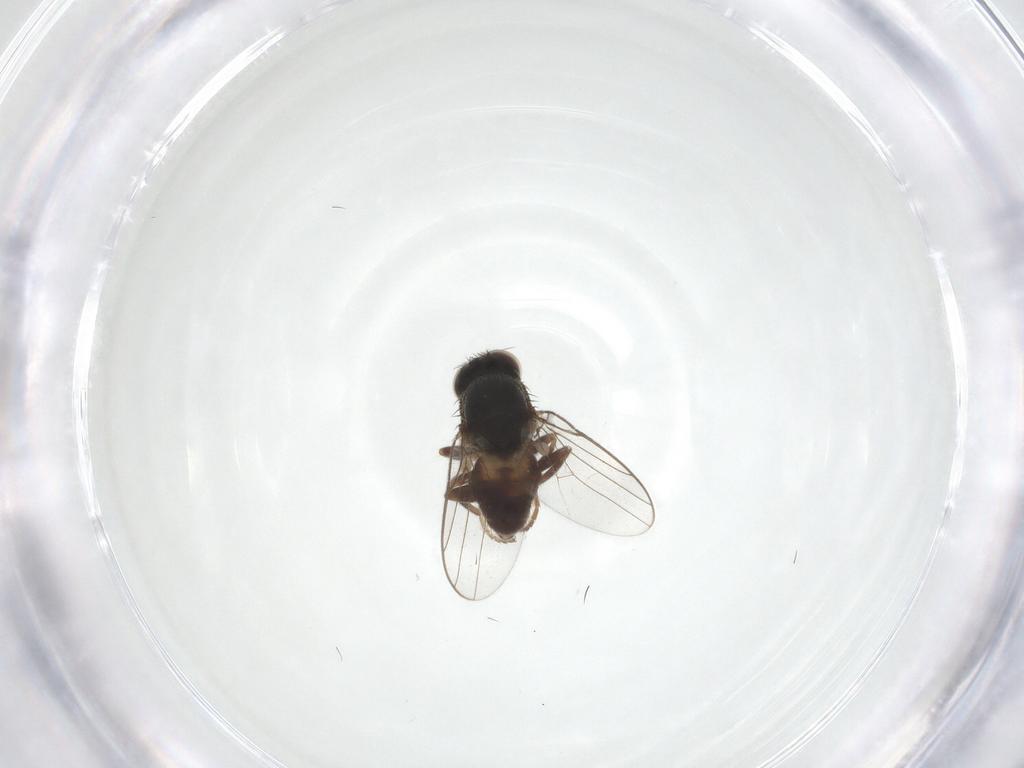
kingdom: Animalia
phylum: Arthropoda
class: Insecta
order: Diptera
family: Chloropidae
